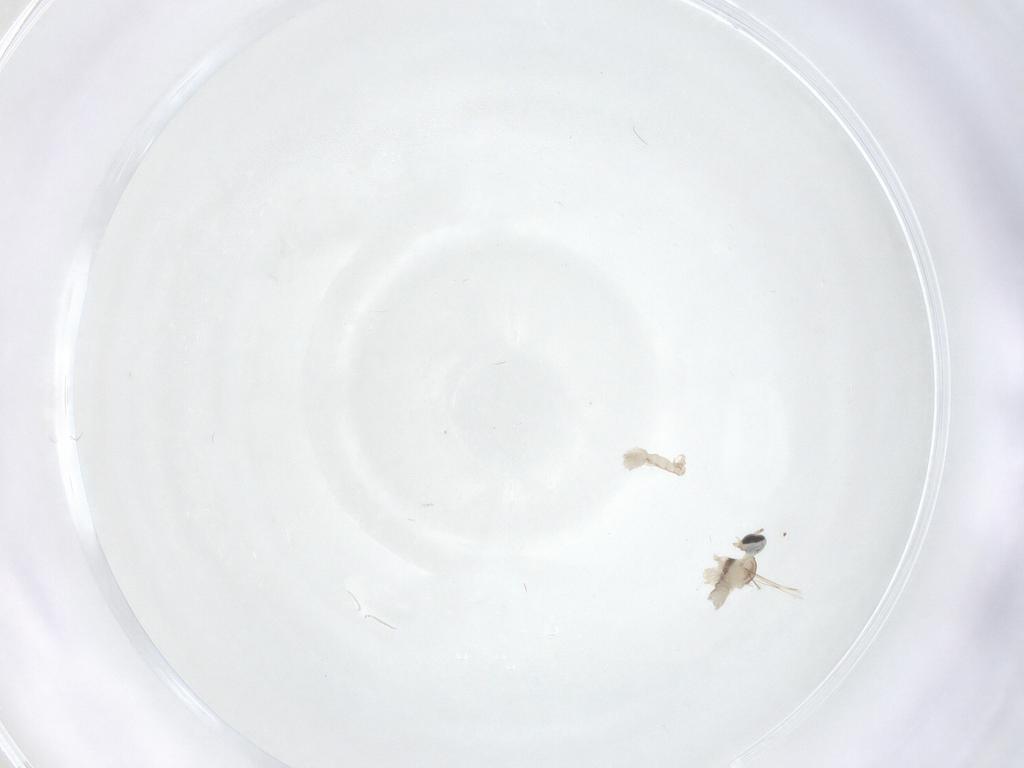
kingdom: Animalia
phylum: Arthropoda
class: Insecta
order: Diptera
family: Cecidomyiidae
